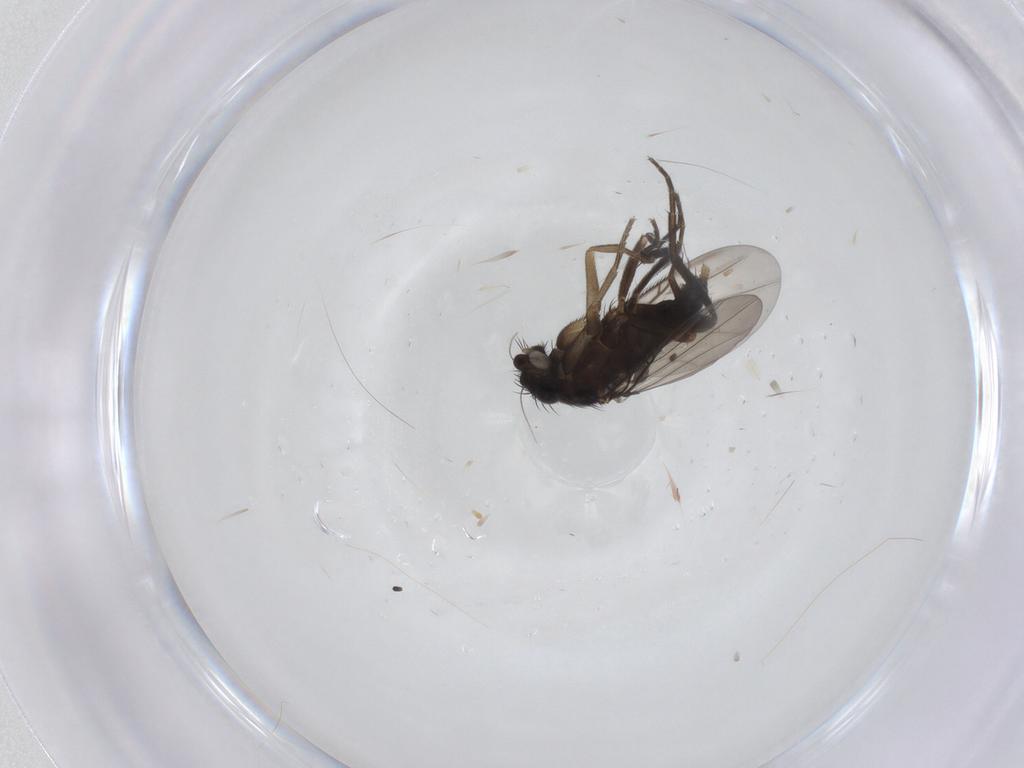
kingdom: Animalia
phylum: Arthropoda
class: Insecta
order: Diptera
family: Phoridae
